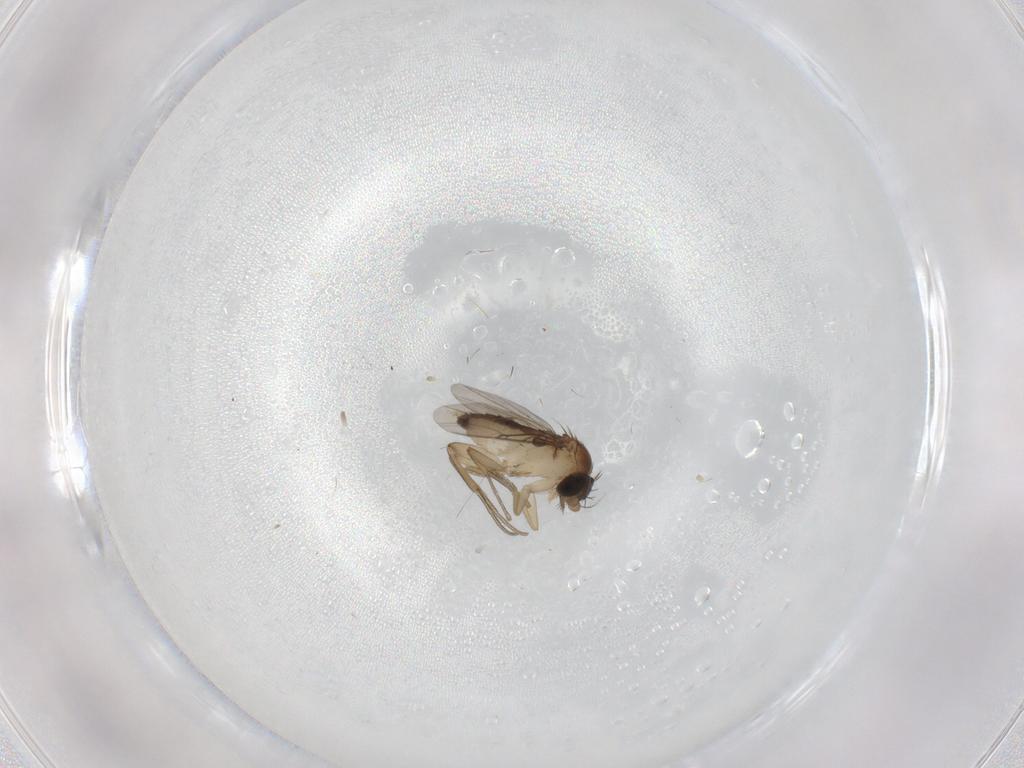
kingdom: Animalia
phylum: Arthropoda
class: Insecta
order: Diptera
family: Phoridae
